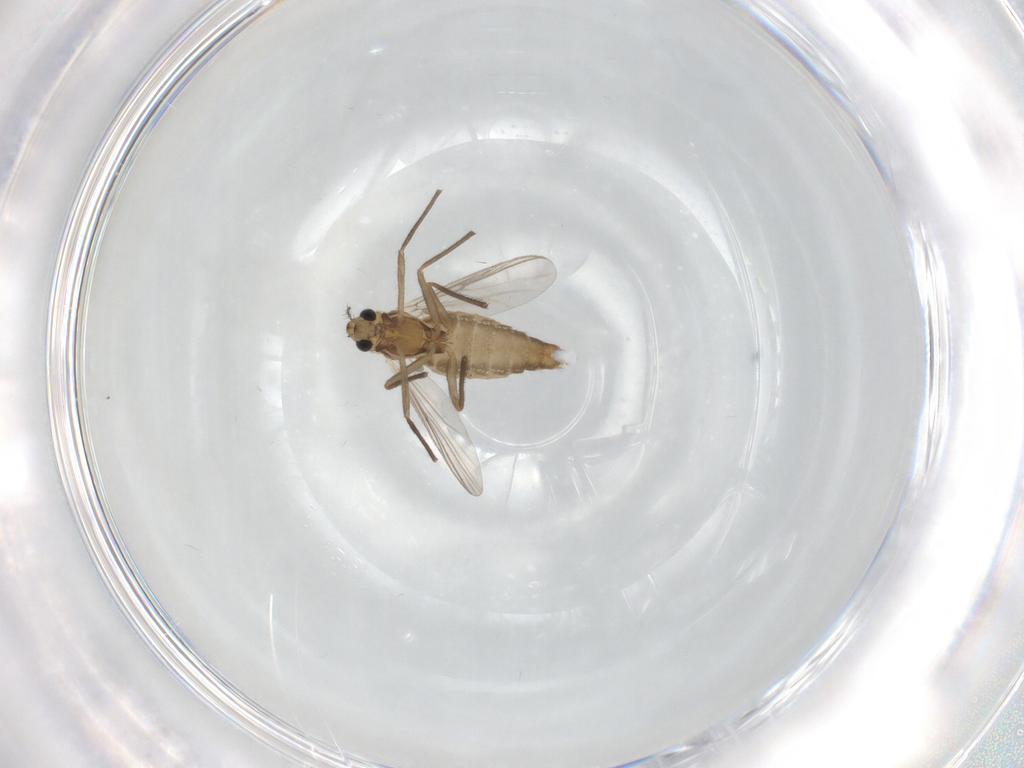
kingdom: Animalia
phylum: Arthropoda
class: Insecta
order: Diptera
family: Chironomidae
